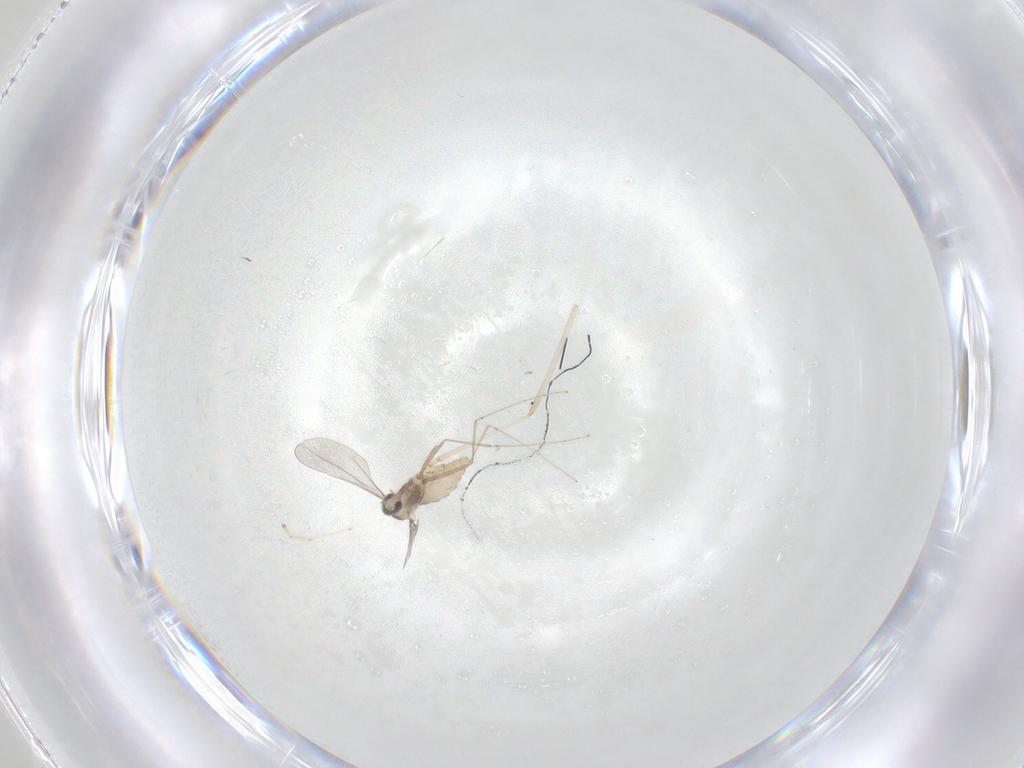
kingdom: Animalia
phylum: Arthropoda
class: Insecta
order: Diptera
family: Cecidomyiidae
